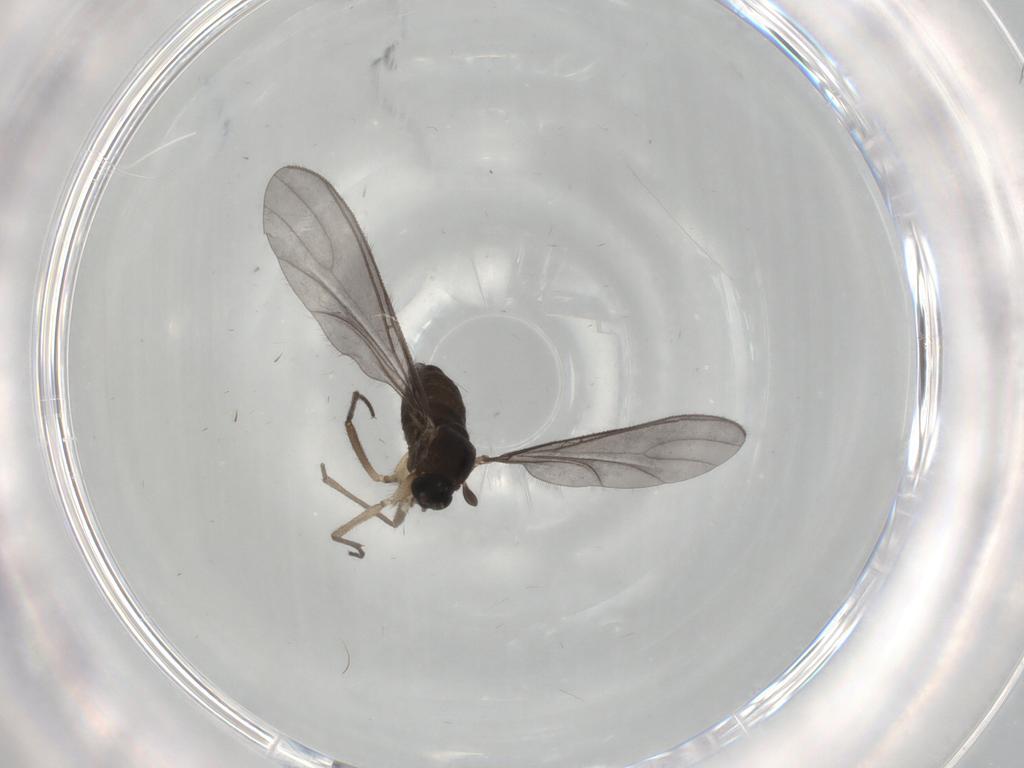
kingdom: Animalia
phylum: Arthropoda
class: Insecta
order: Diptera
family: Sciaridae
